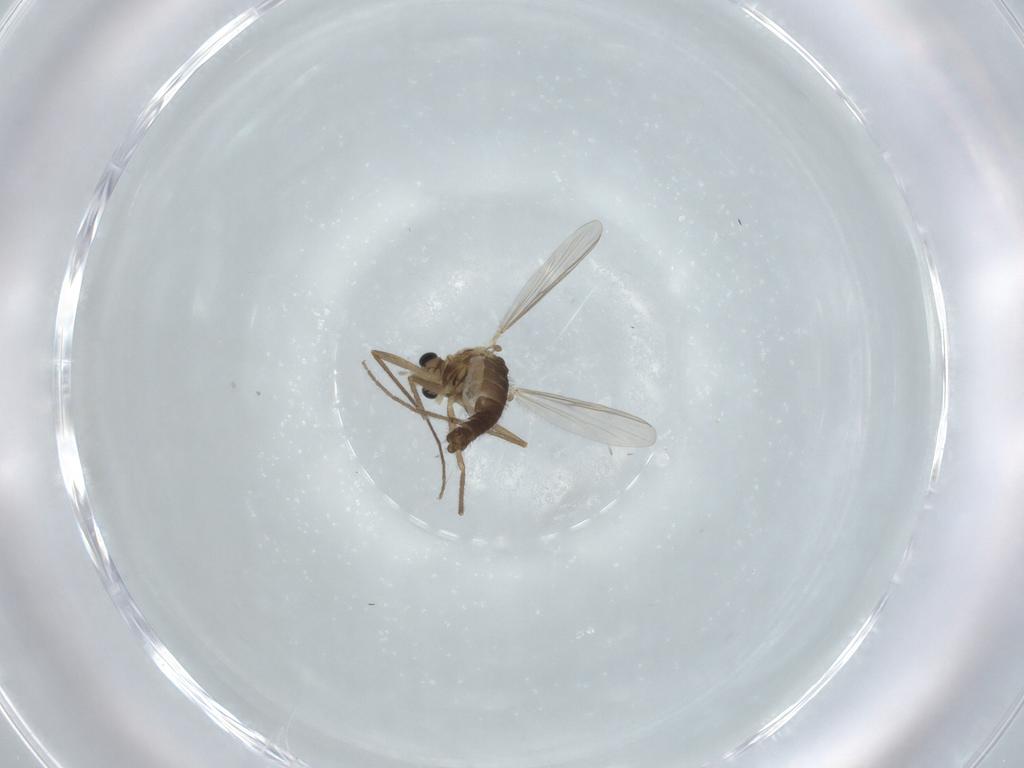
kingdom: Animalia
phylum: Arthropoda
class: Insecta
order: Diptera
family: Chironomidae
